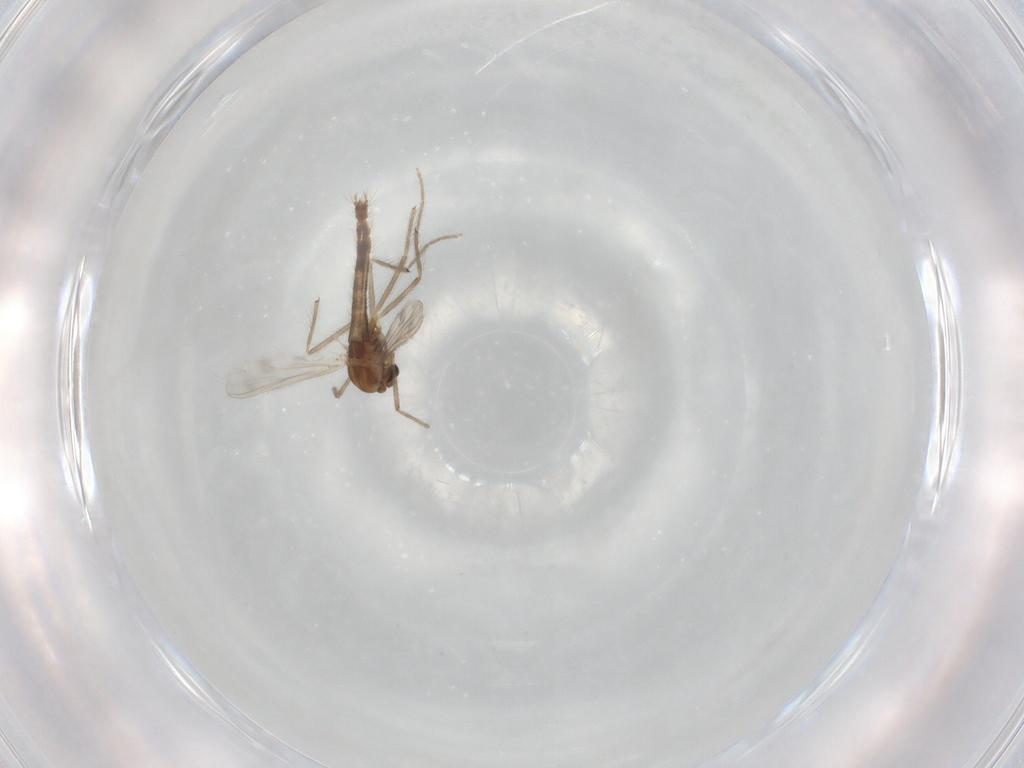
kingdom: Animalia
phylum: Arthropoda
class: Insecta
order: Diptera
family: Chironomidae
